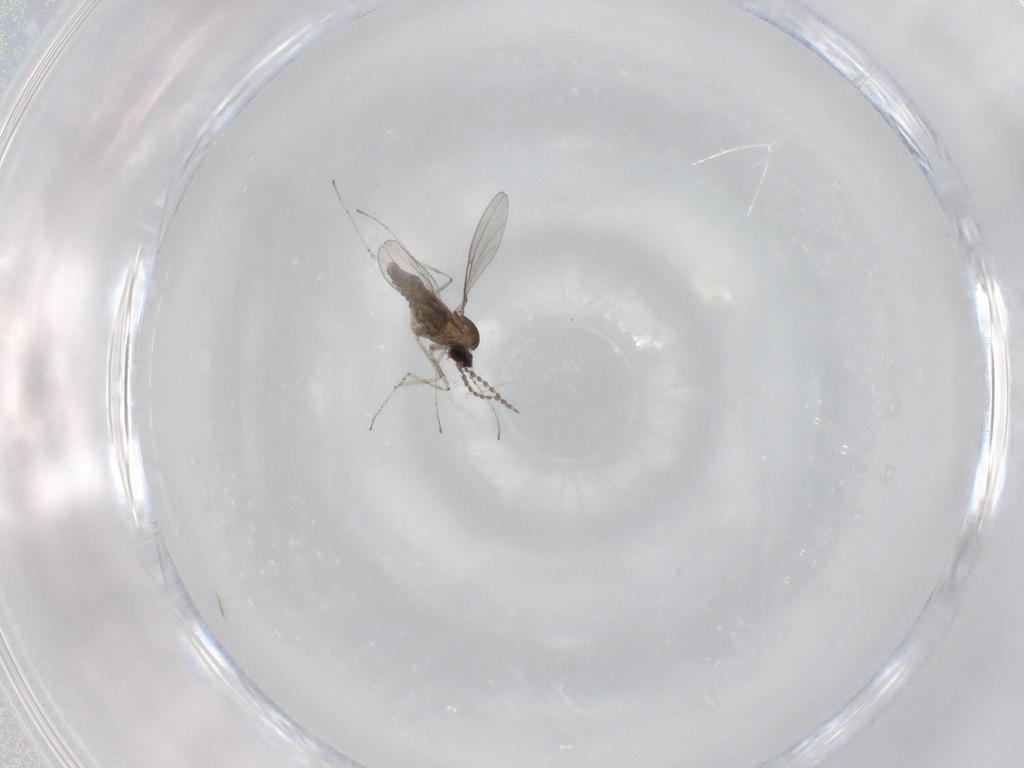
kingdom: Animalia
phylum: Arthropoda
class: Insecta
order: Diptera
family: Cecidomyiidae
